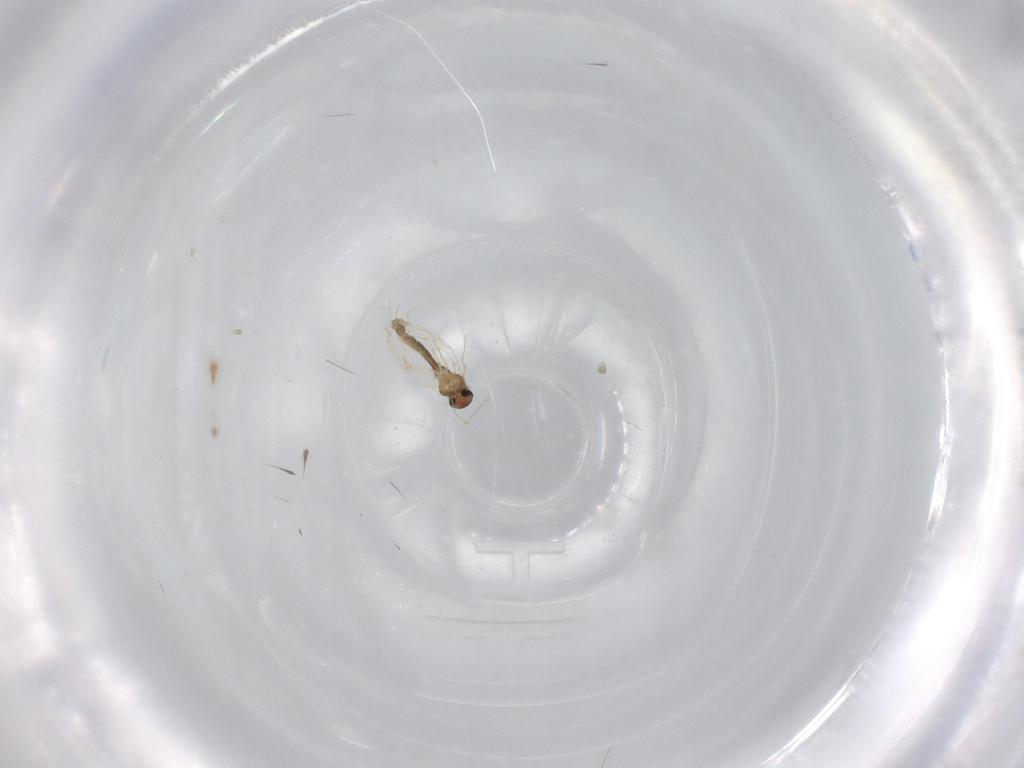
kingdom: Animalia
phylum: Arthropoda
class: Insecta
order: Diptera
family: Chironomidae
